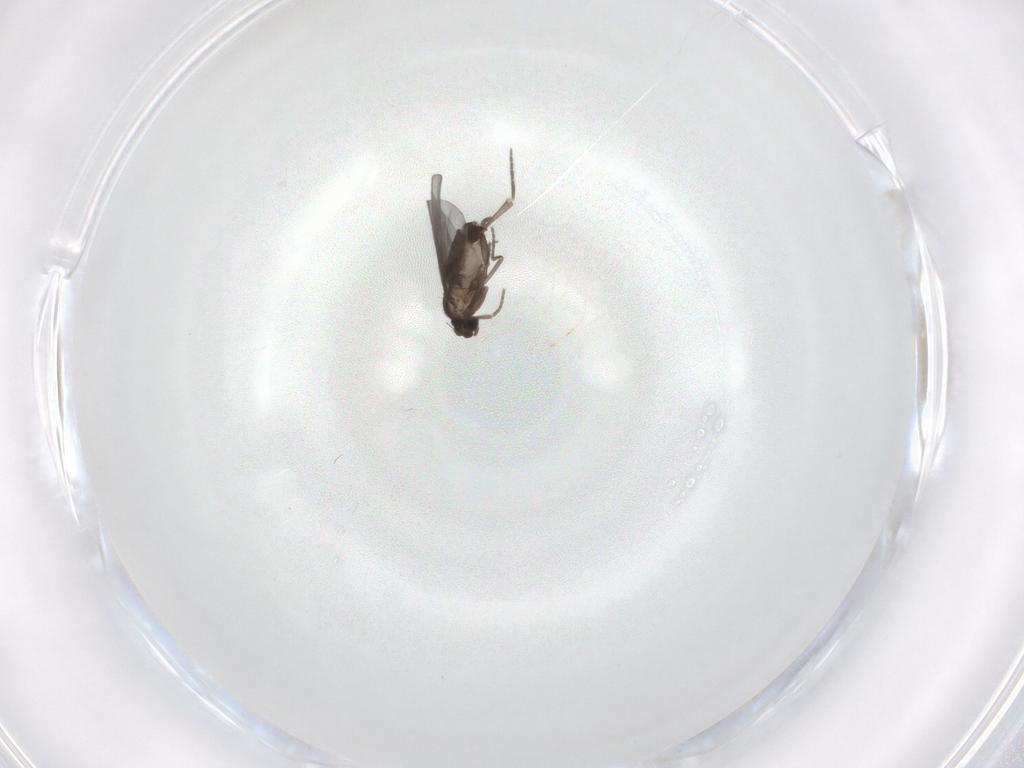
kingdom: Animalia
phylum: Arthropoda
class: Insecta
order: Diptera
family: Phoridae
